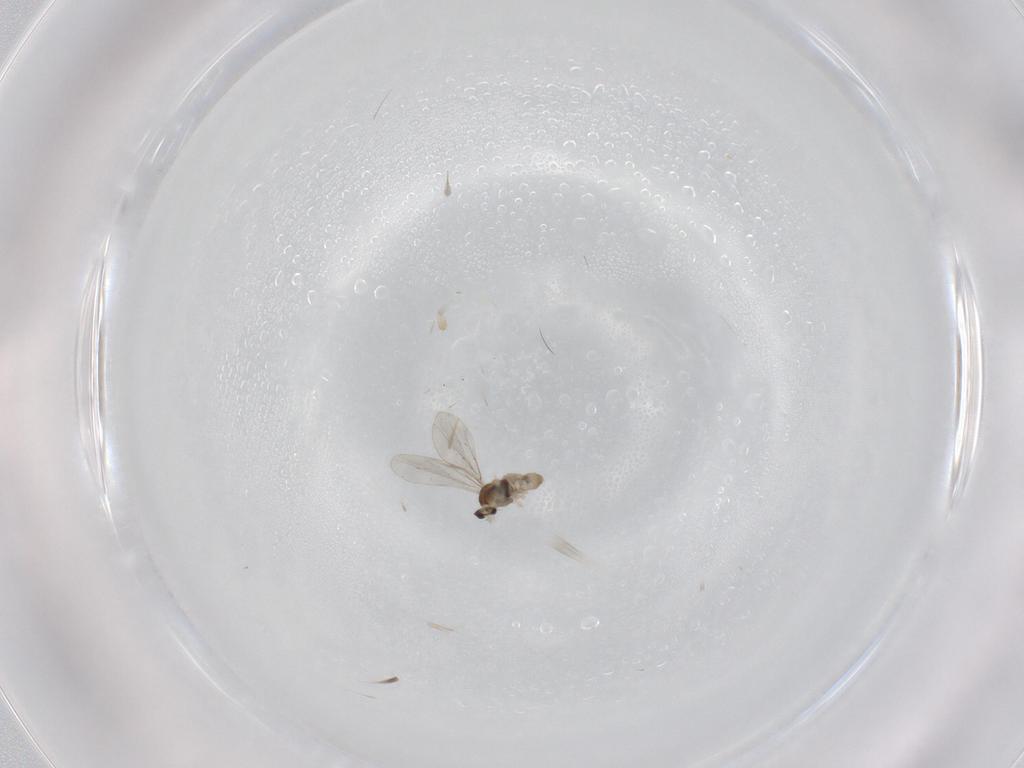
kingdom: Animalia
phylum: Arthropoda
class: Insecta
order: Diptera
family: Cecidomyiidae
